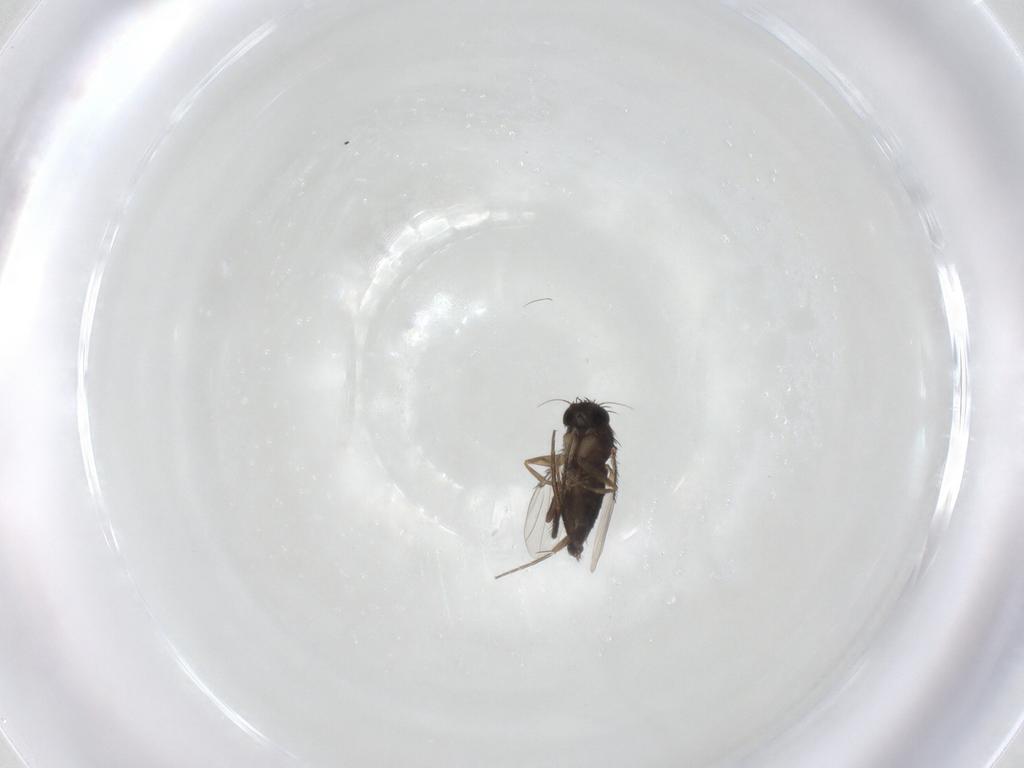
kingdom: Animalia
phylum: Arthropoda
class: Insecta
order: Diptera
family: Phoridae
